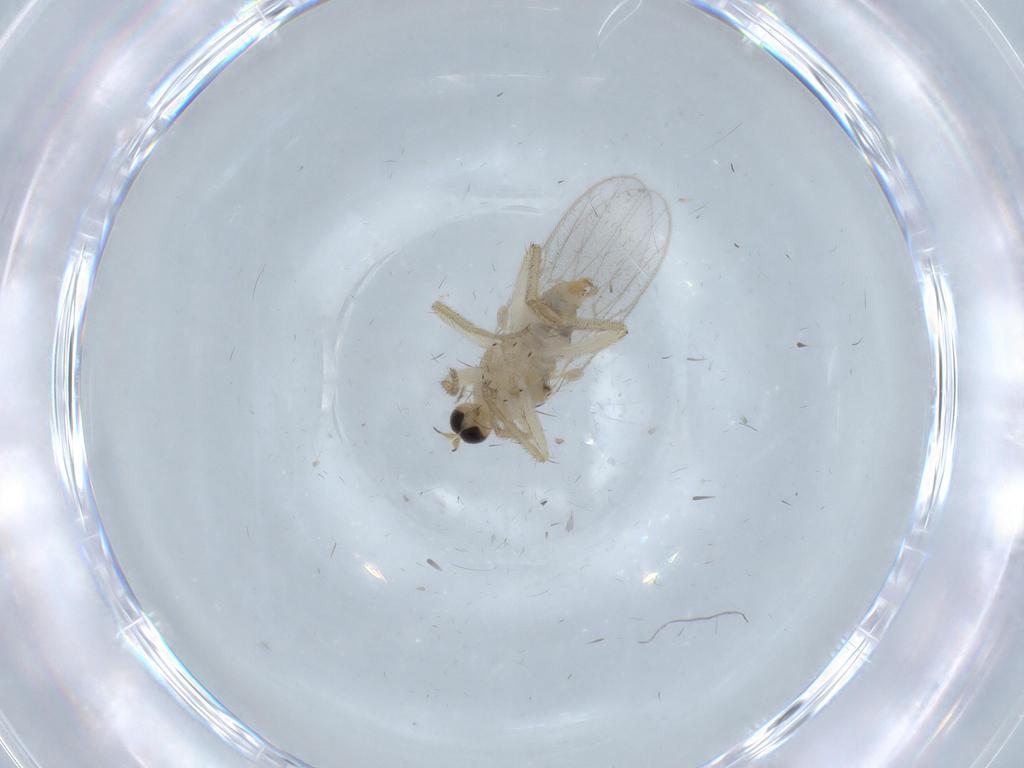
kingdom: Animalia
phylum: Arthropoda
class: Insecta
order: Diptera
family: Hybotidae
